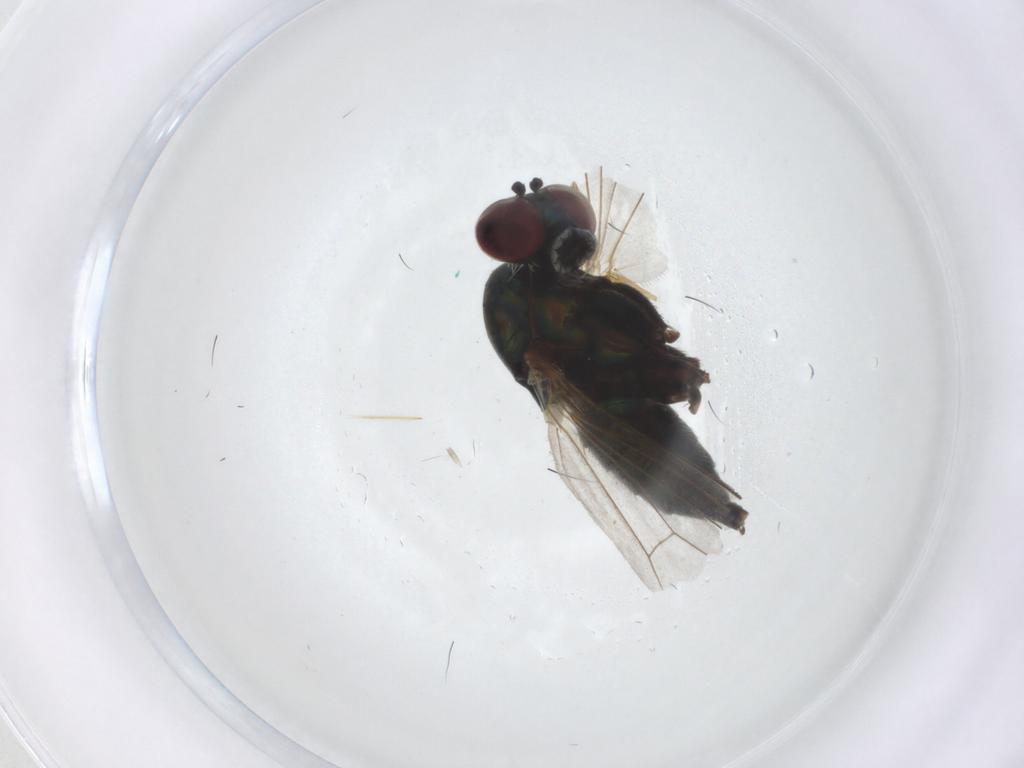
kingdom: Animalia
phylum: Arthropoda
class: Insecta
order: Diptera
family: Dolichopodidae
